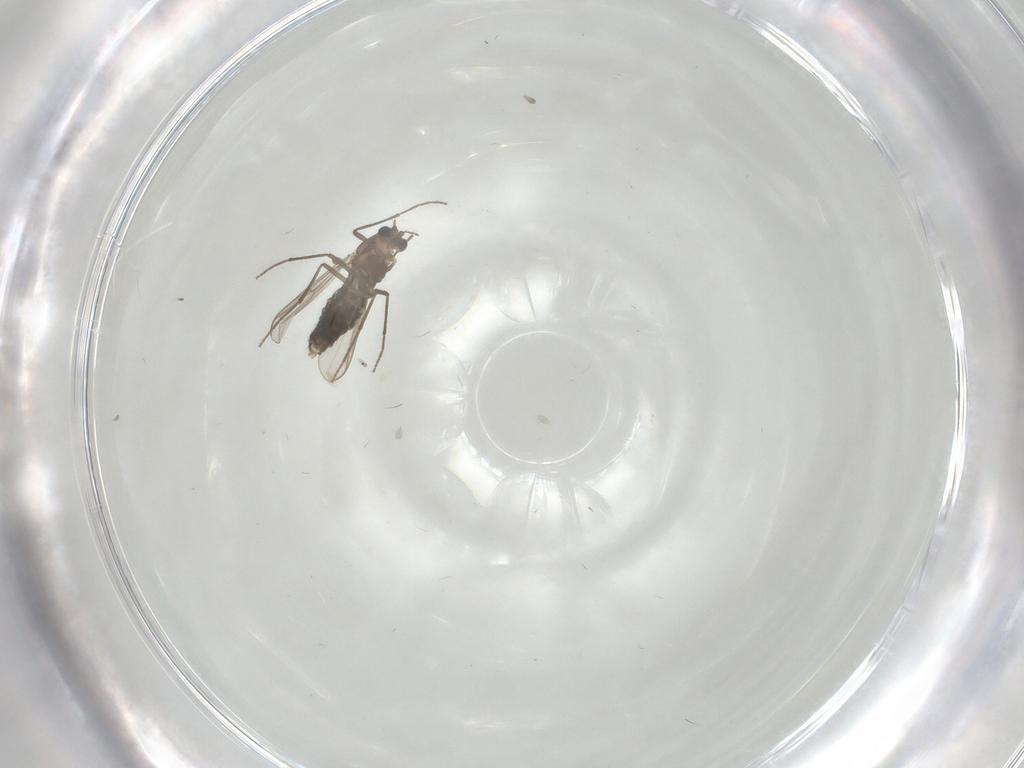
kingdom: Animalia
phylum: Arthropoda
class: Insecta
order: Diptera
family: Chironomidae
